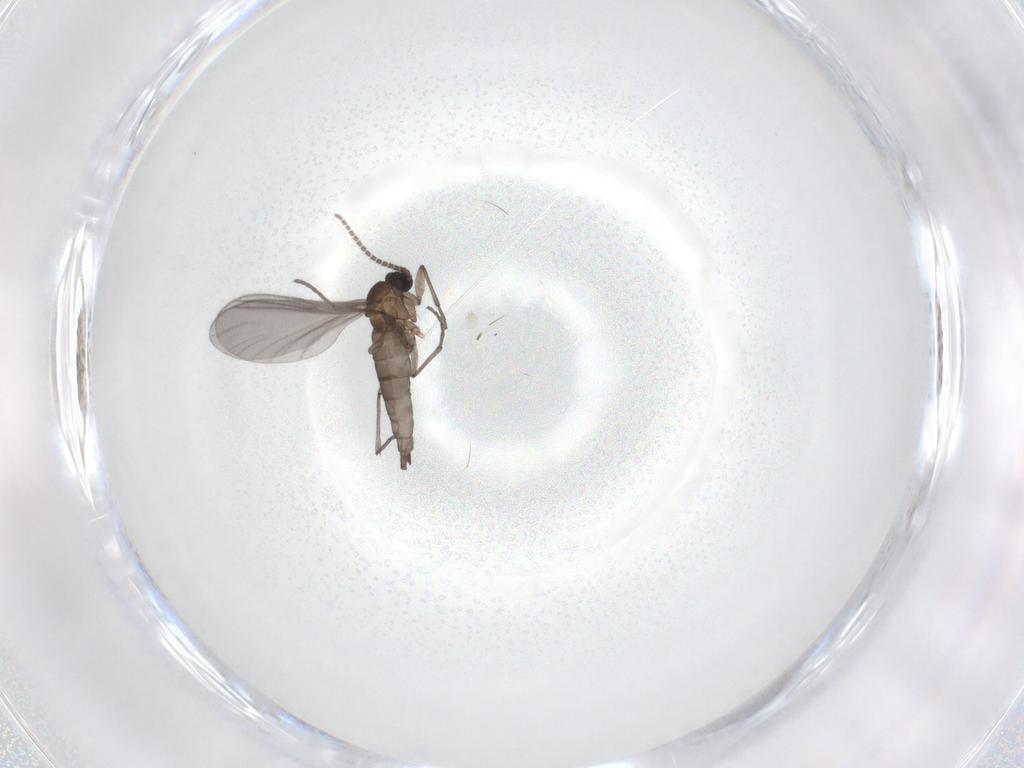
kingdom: Animalia
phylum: Arthropoda
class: Insecta
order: Diptera
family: Sciaridae
